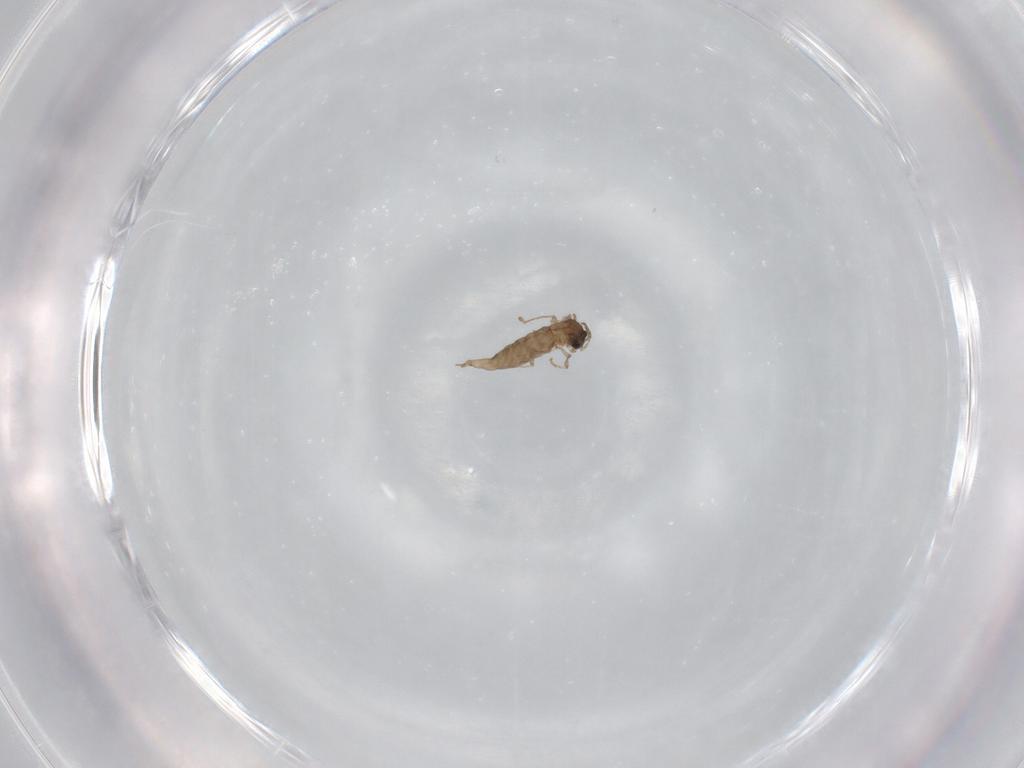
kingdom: Animalia
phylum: Arthropoda
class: Insecta
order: Diptera
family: Cecidomyiidae
